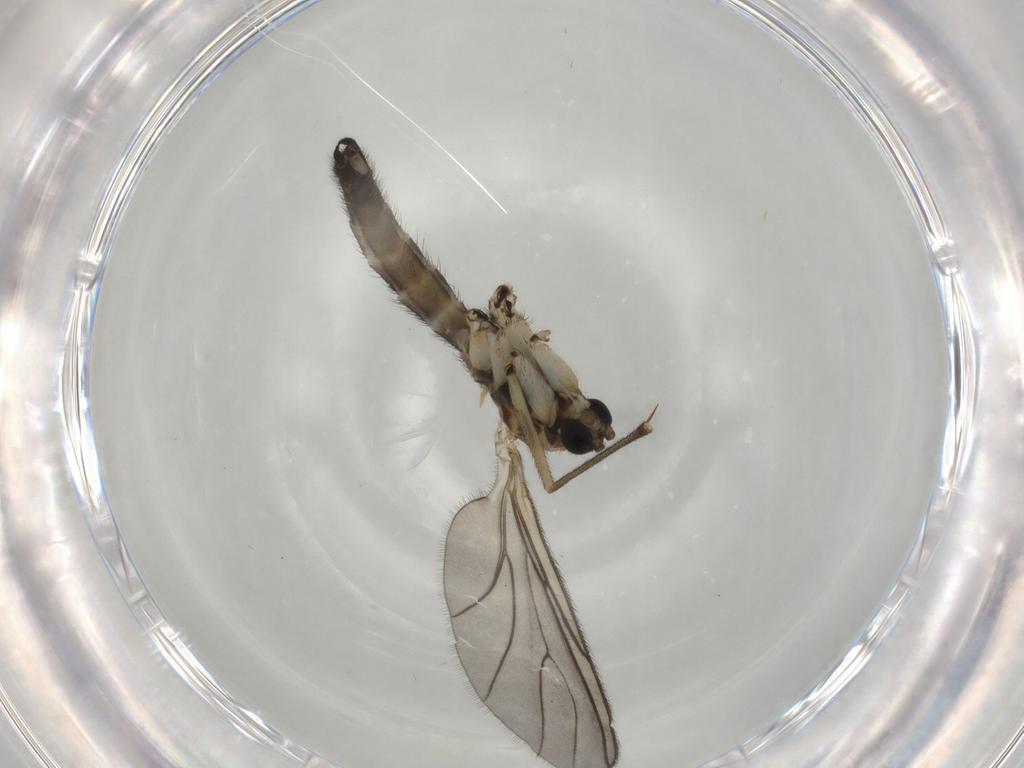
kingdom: Animalia
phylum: Arthropoda
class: Insecta
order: Diptera
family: Sciaridae
